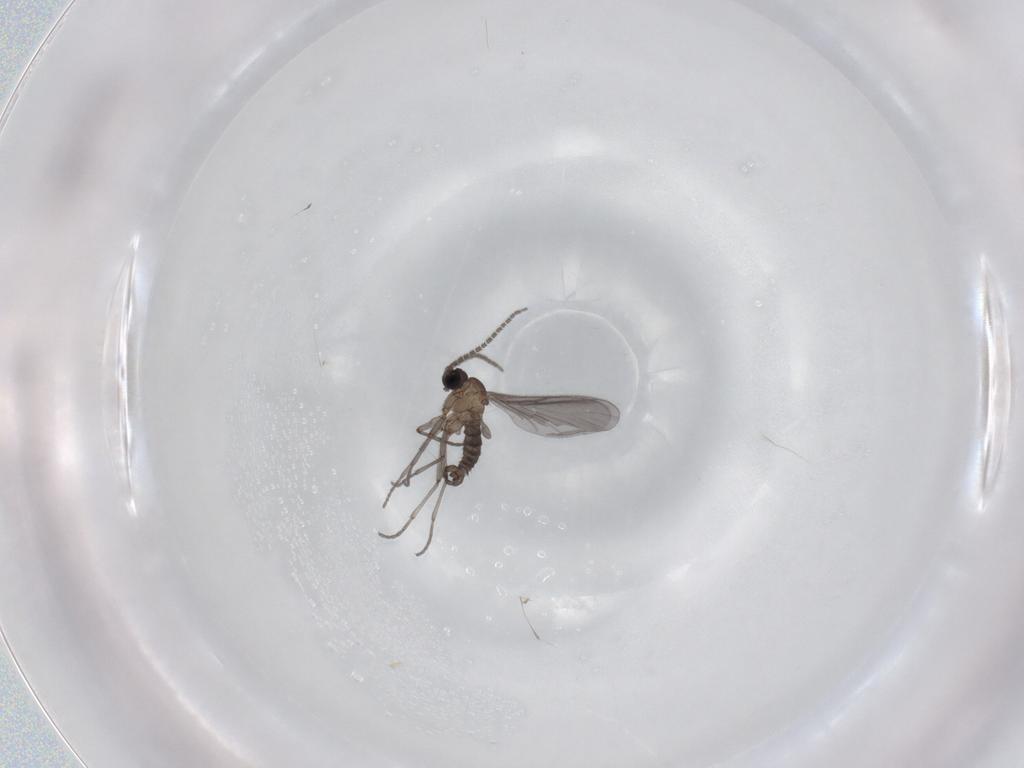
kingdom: Animalia
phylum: Arthropoda
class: Insecta
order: Diptera
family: Sciaridae
